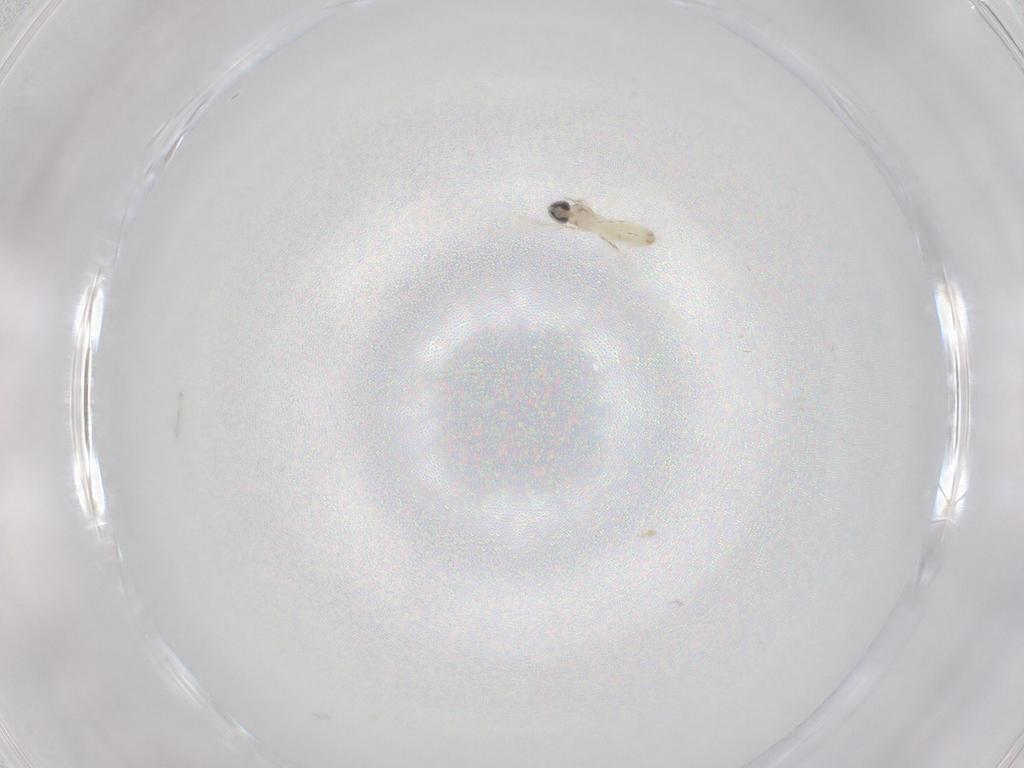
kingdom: Animalia
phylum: Arthropoda
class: Insecta
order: Diptera
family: Cecidomyiidae
